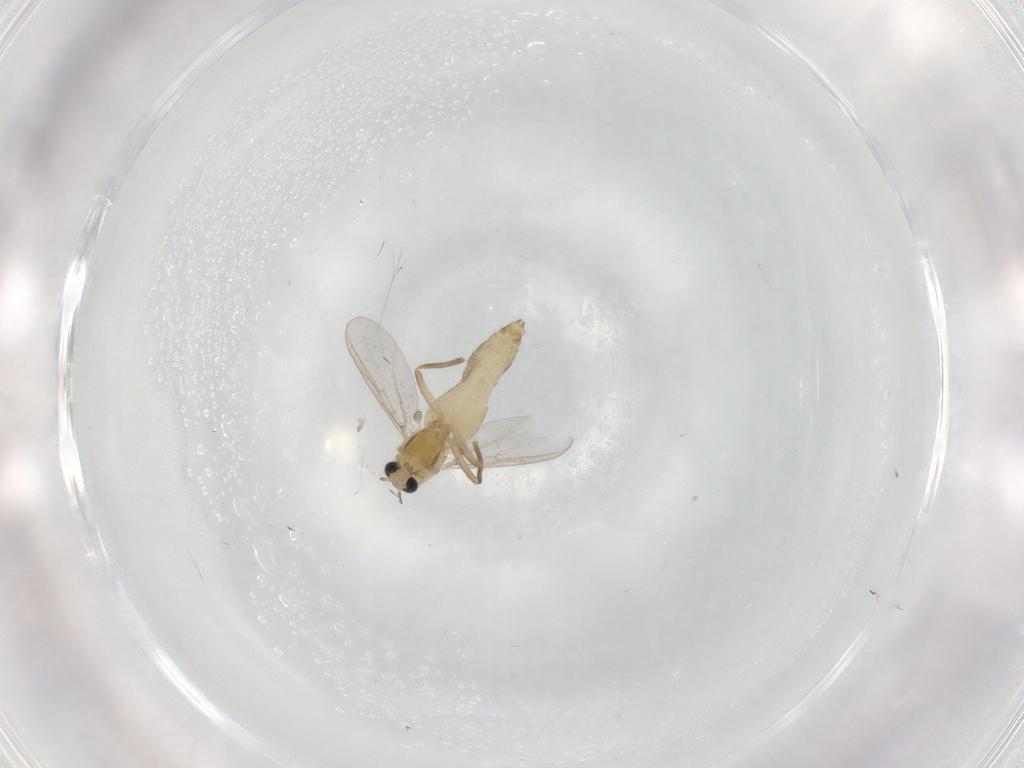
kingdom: Animalia
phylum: Arthropoda
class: Insecta
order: Diptera
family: Chironomidae
